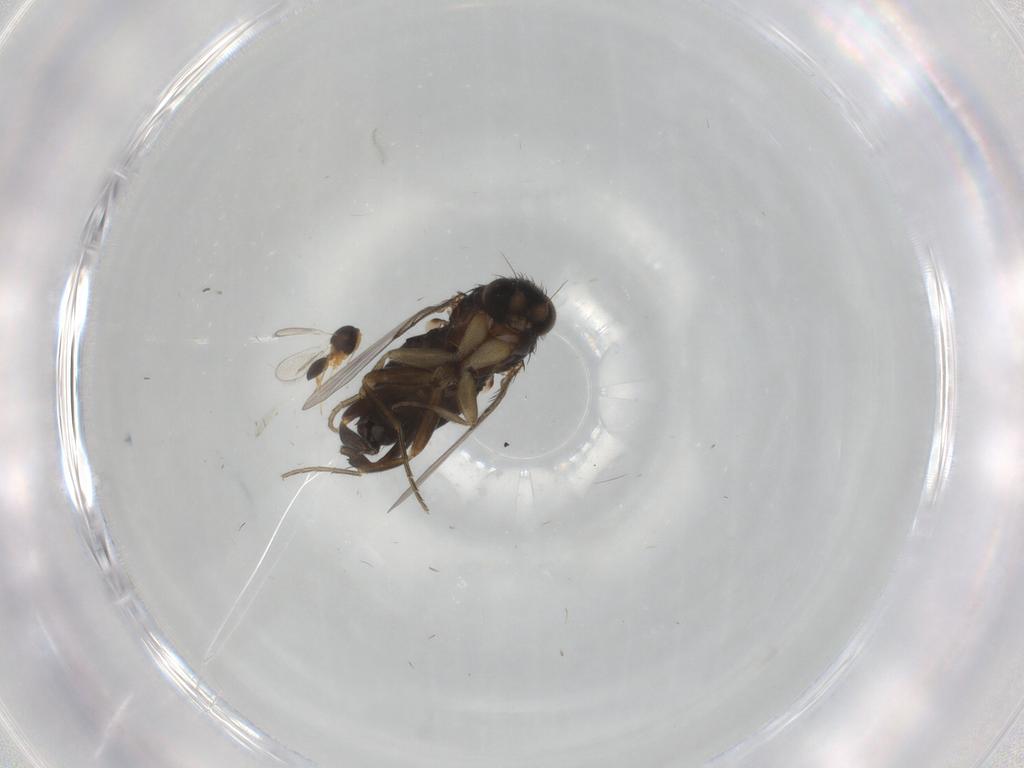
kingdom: Animalia
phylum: Arthropoda
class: Insecta
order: Diptera
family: Phoridae
